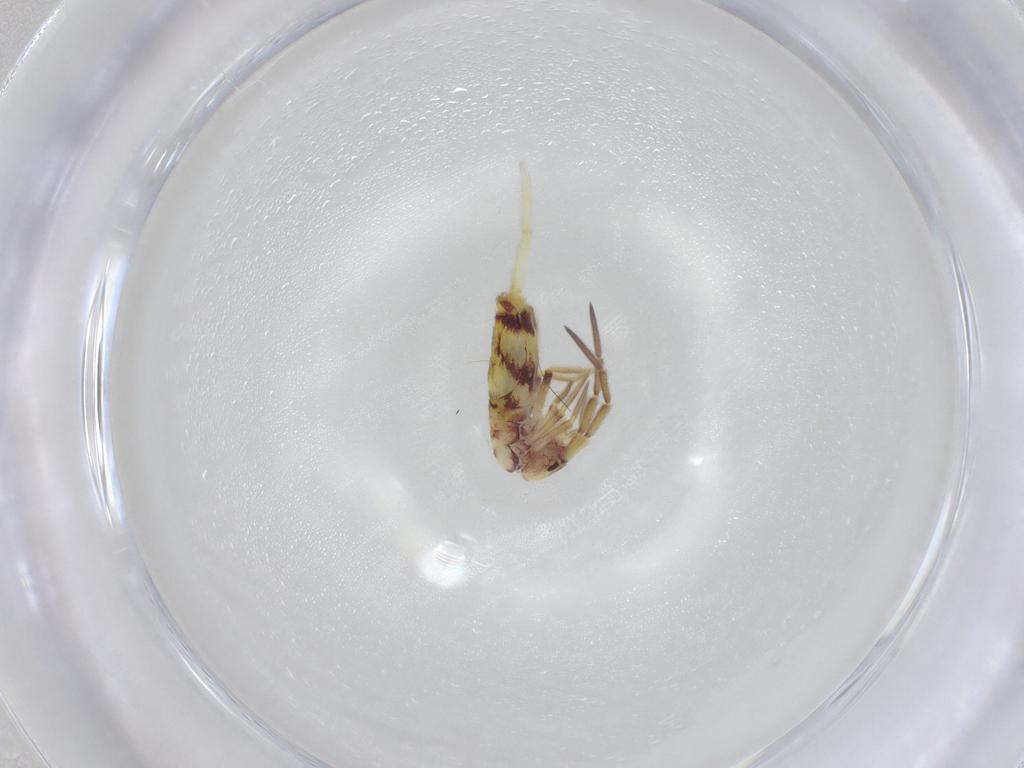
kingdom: Animalia
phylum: Arthropoda
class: Collembola
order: Entomobryomorpha
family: Entomobryidae
